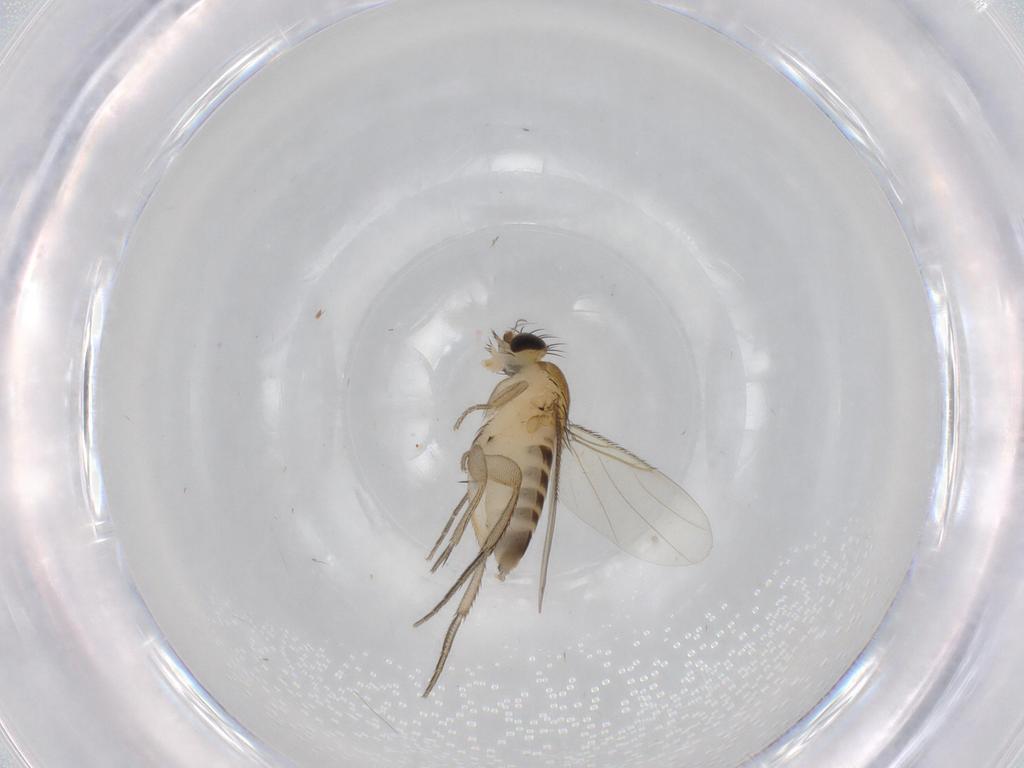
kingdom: Animalia
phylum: Arthropoda
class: Insecta
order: Diptera
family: Phoridae
